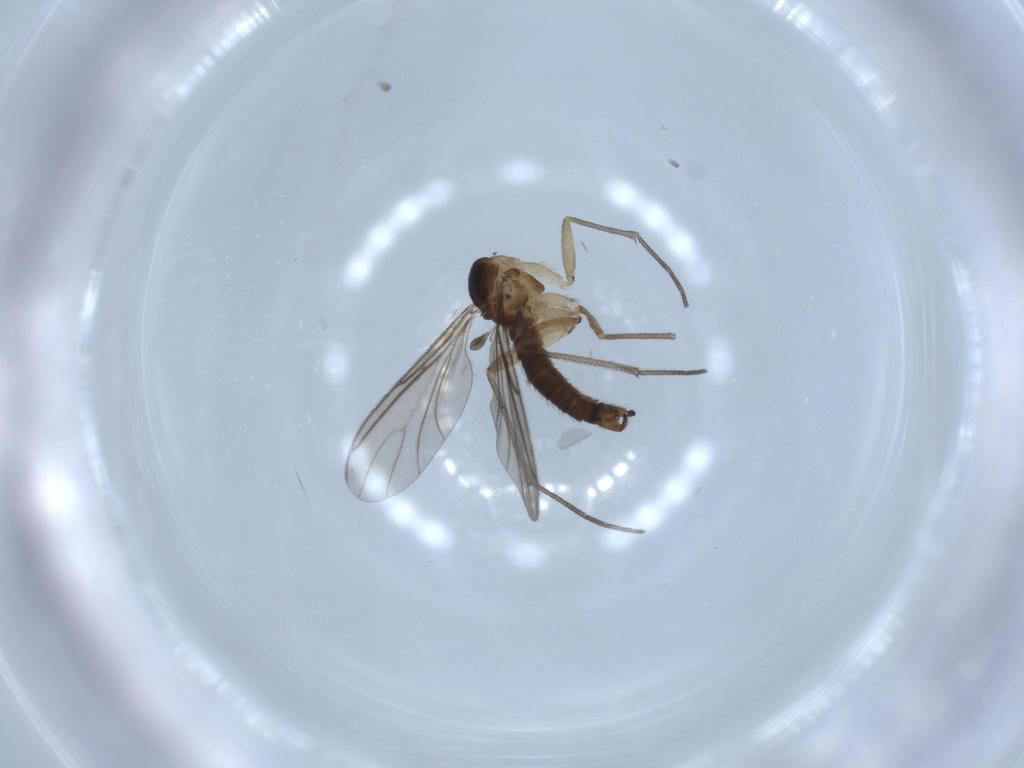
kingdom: Animalia
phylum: Arthropoda
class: Insecta
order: Diptera
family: Sciaridae
